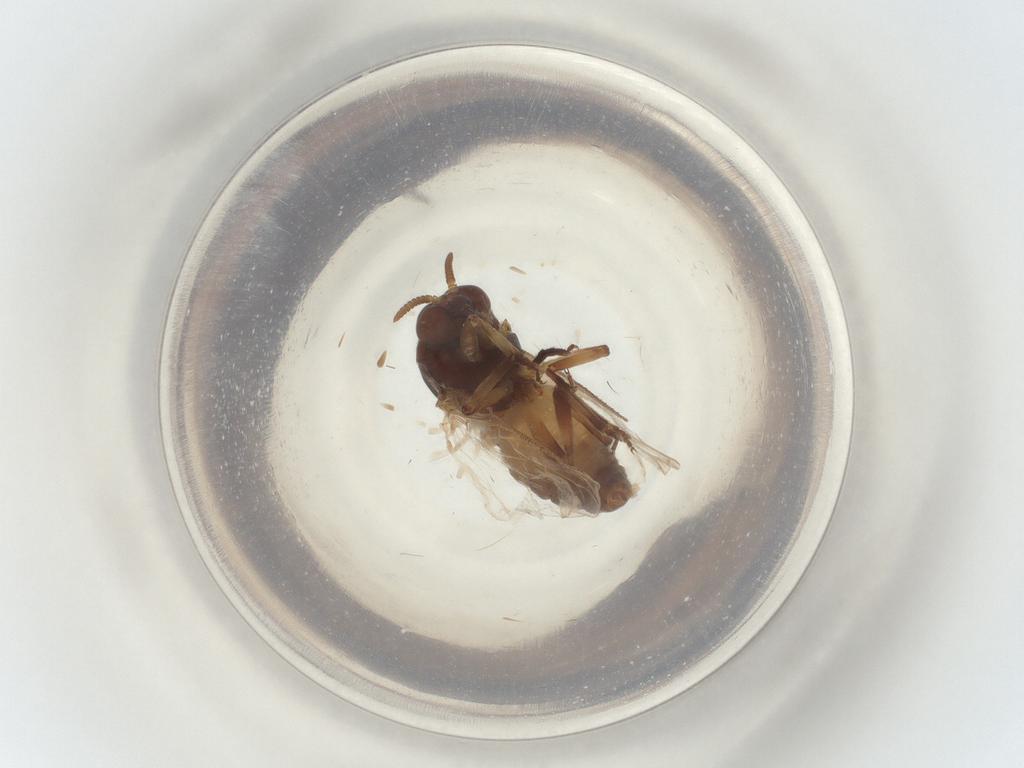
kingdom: Animalia
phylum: Arthropoda
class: Insecta
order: Diptera
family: Simuliidae
